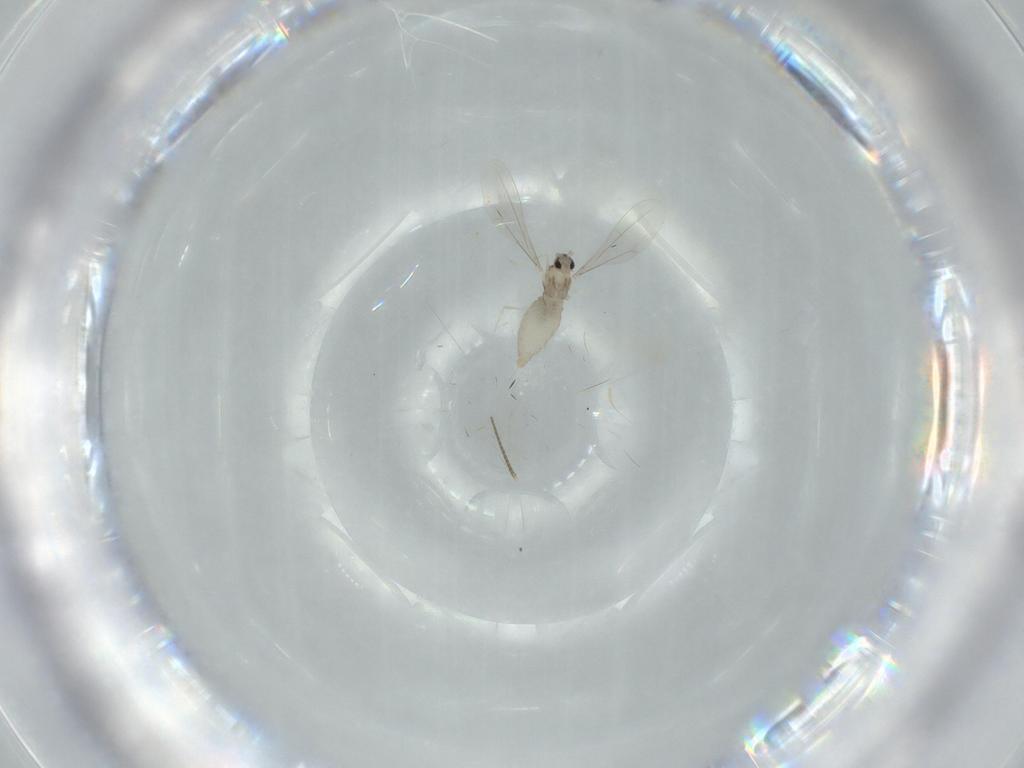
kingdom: Animalia
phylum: Arthropoda
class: Insecta
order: Diptera
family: Cecidomyiidae
